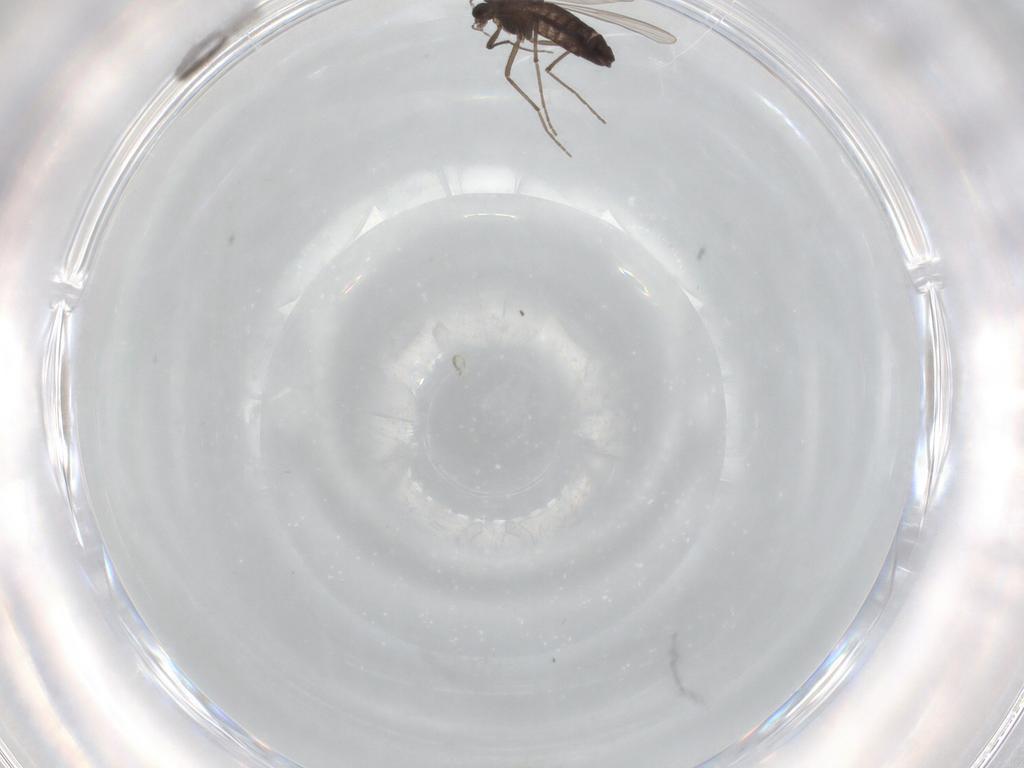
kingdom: Animalia
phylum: Arthropoda
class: Insecta
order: Diptera
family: Chironomidae
